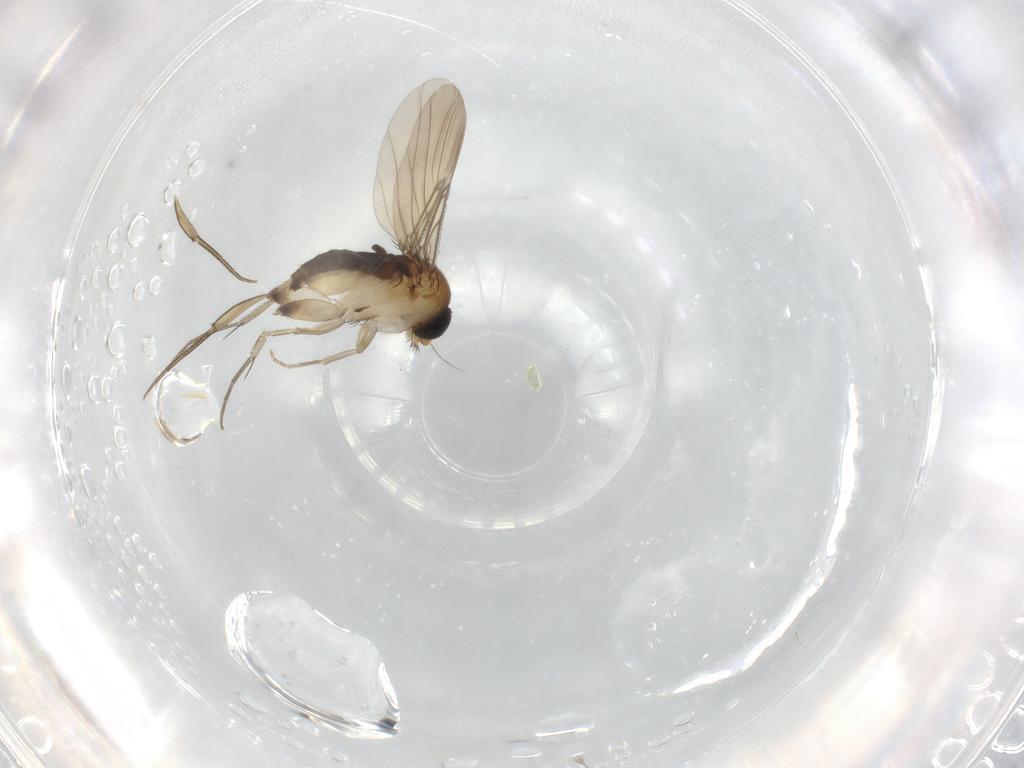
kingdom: Animalia
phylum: Arthropoda
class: Insecta
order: Diptera
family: Phoridae
